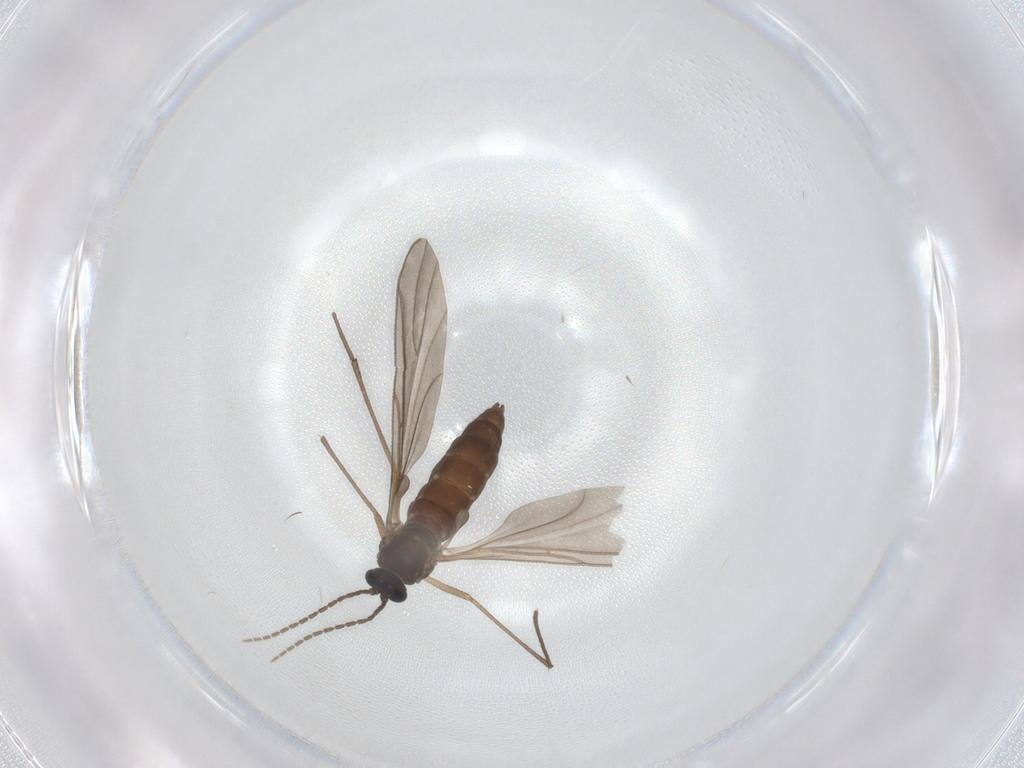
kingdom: Animalia
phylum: Arthropoda
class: Insecta
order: Diptera
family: Sciaridae
